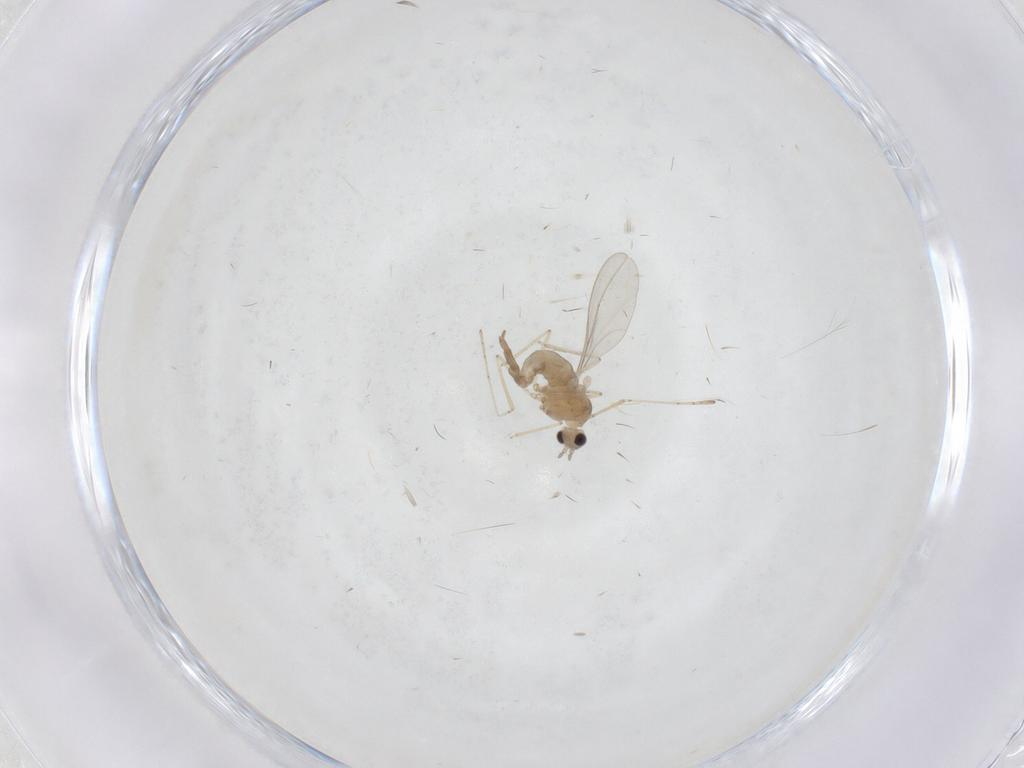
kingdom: Animalia
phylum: Arthropoda
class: Insecta
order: Diptera
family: Cecidomyiidae
